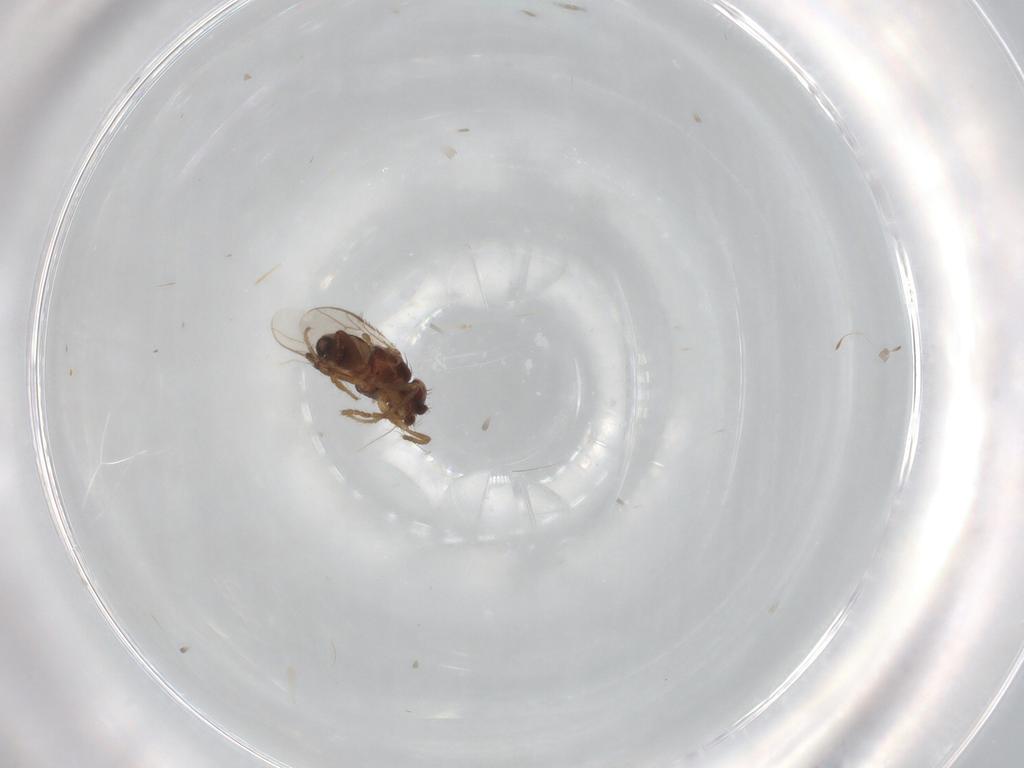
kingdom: Animalia
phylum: Arthropoda
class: Insecta
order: Diptera
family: Sphaeroceridae
